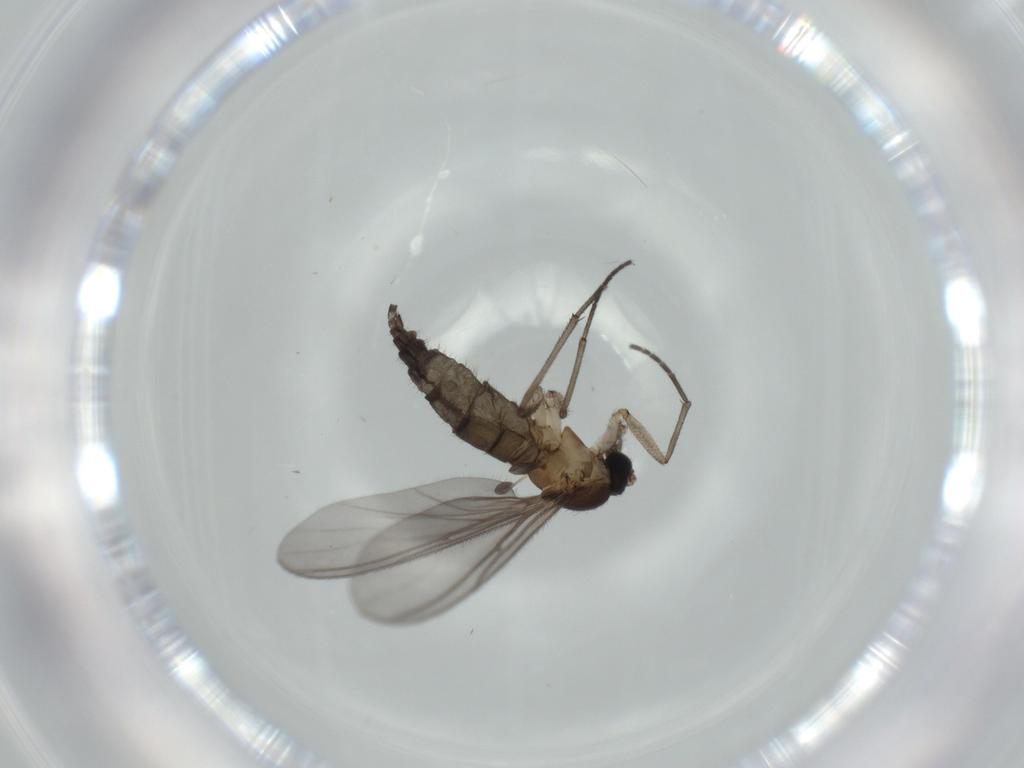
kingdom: Animalia
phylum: Arthropoda
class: Insecta
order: Diptera
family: Sciaridae
